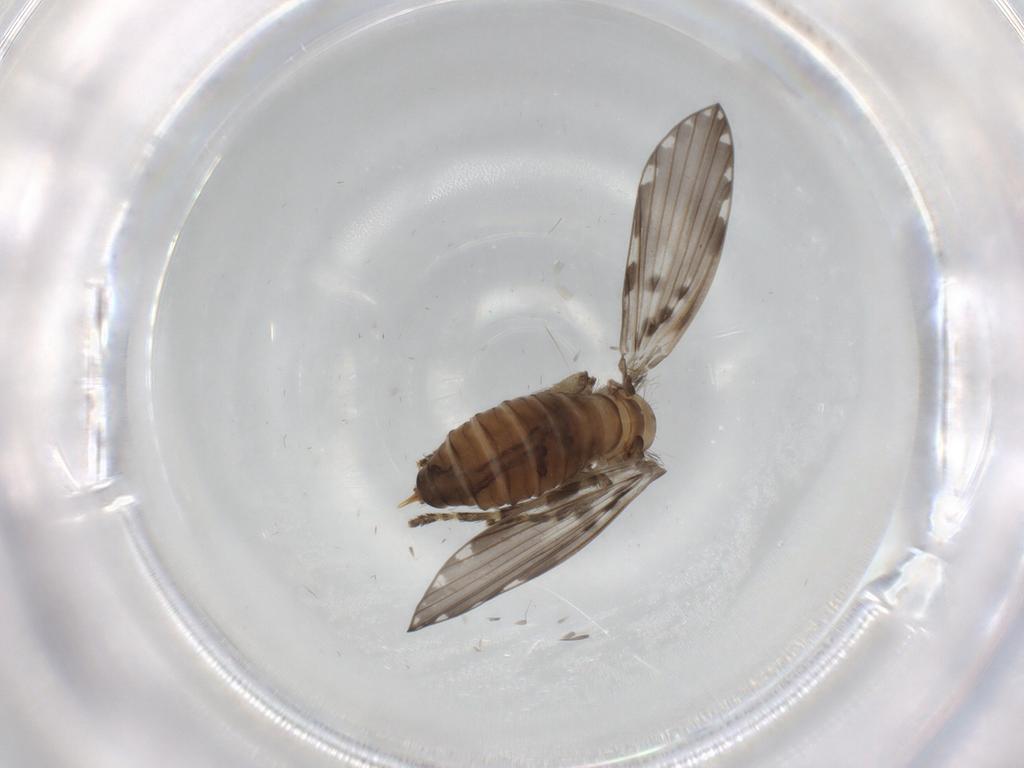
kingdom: Animalia
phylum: Arthropoda
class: Insecta
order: Diptera
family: Psychodidae
